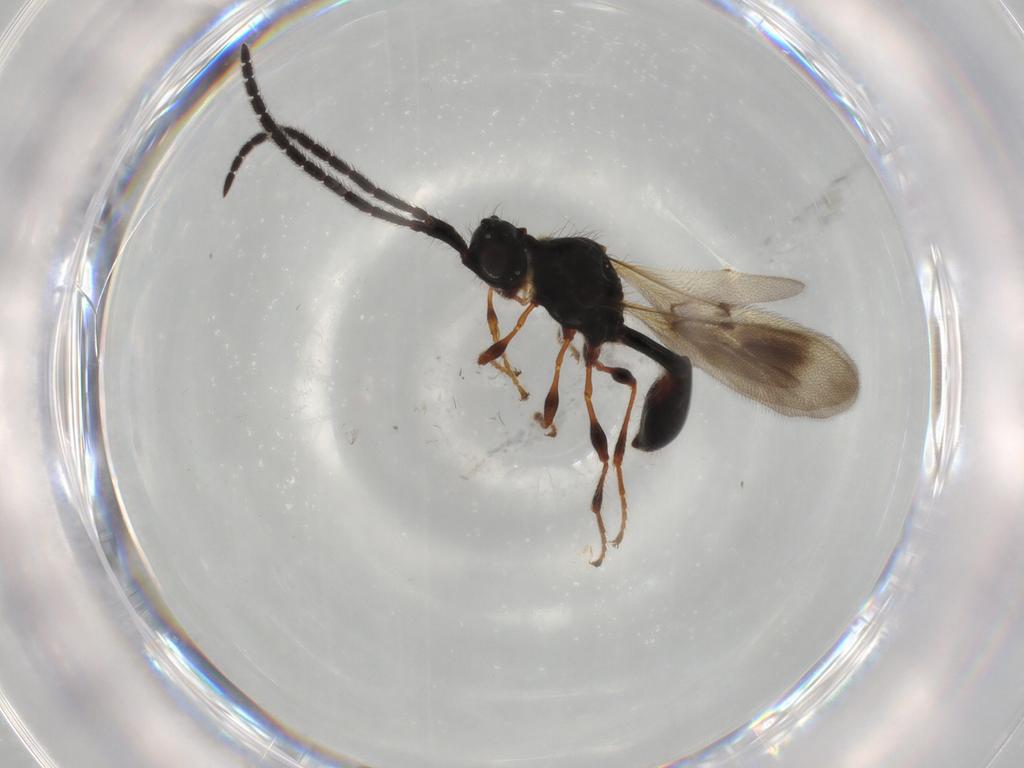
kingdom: Animalia
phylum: Arthropoda
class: Insecta
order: Hymenoptera
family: Diapriidae
